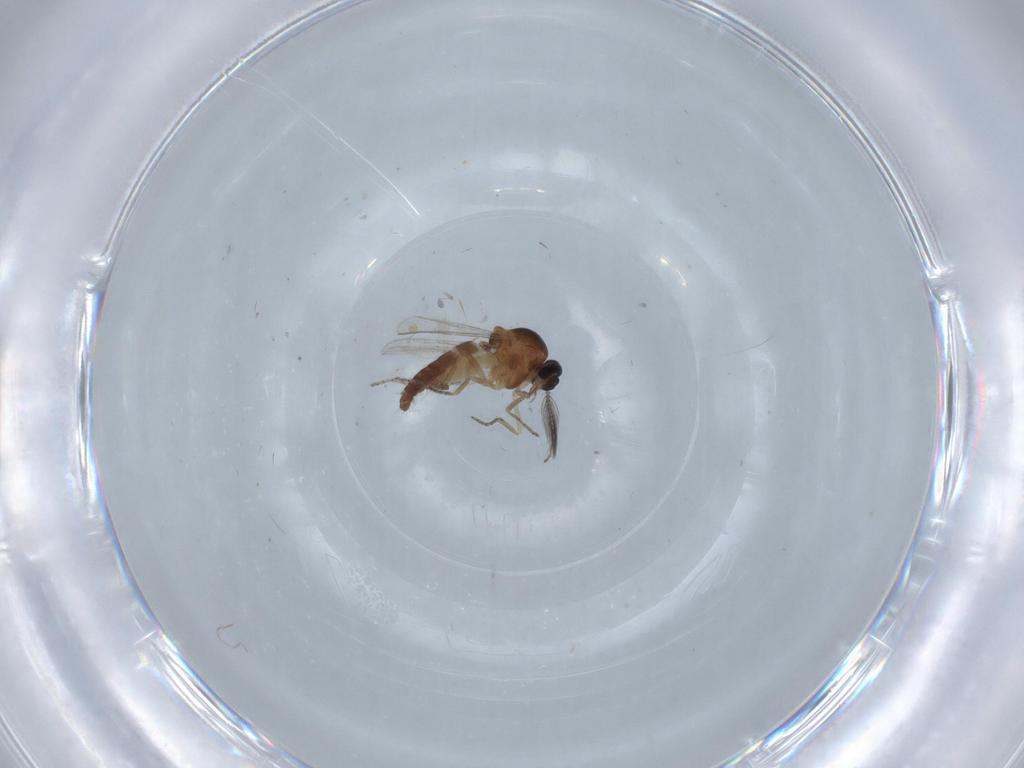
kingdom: Animalia
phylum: Arthropoda
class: Insecta
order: Diptera
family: Ceratopogonidae
